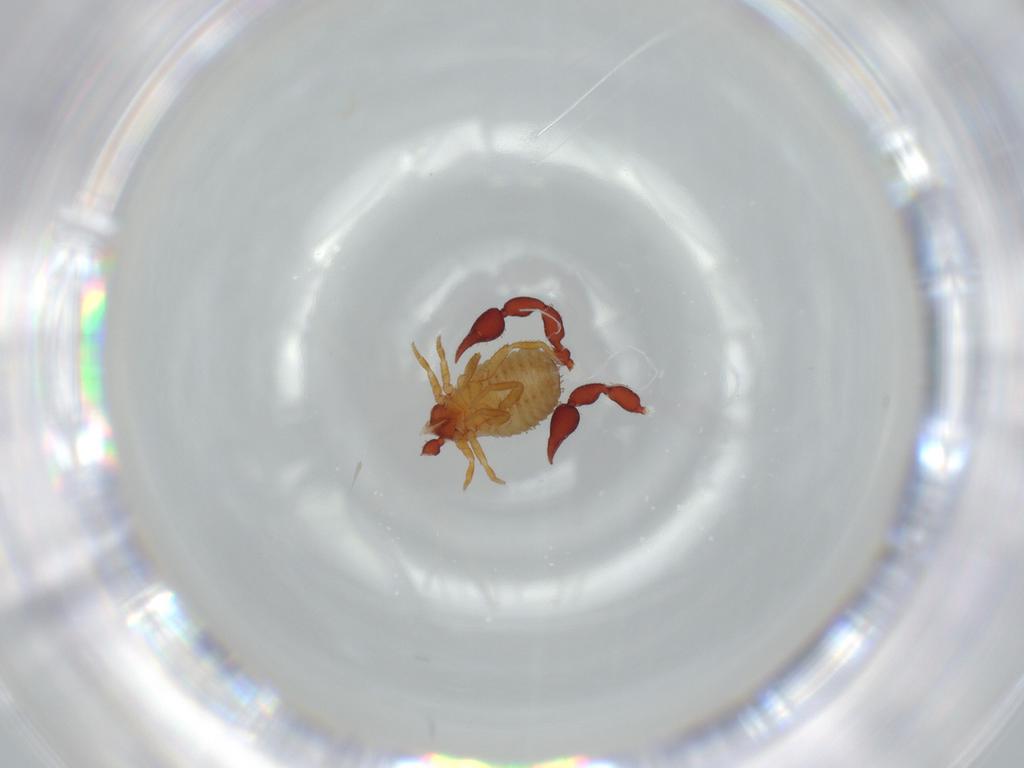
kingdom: Animalia
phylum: Arthropoda
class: Arachnida
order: Pseudoscorpiones
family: Chernetidae
